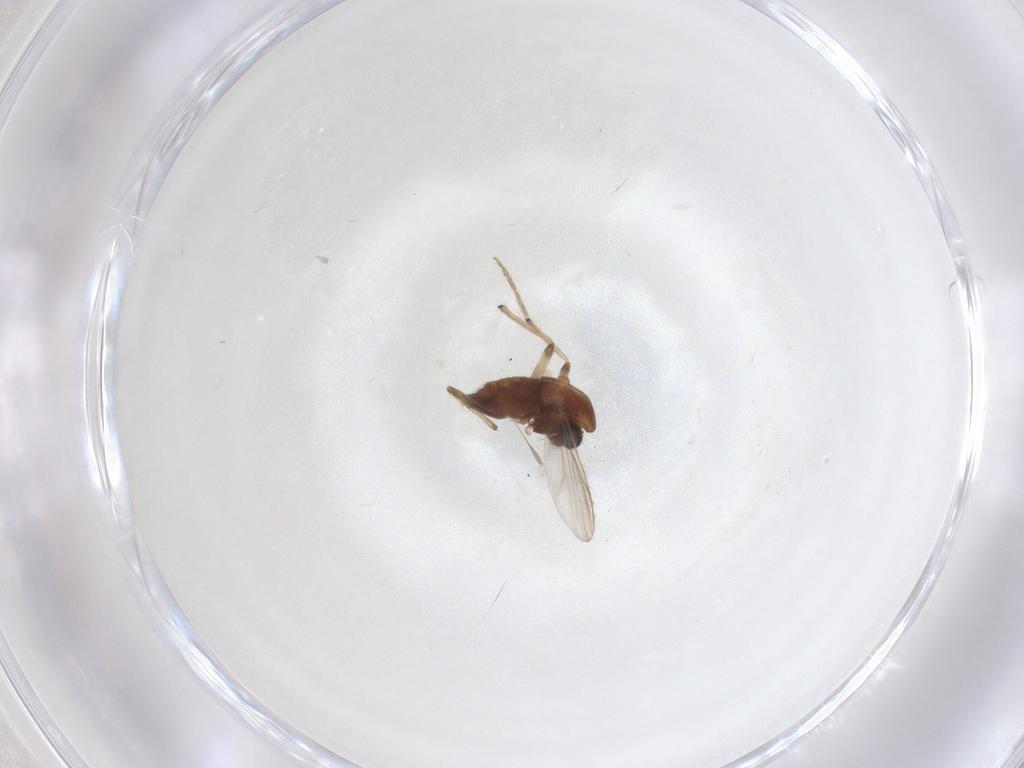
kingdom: Animalia
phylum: Arthropoda
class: Insecta
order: Diptera
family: Chironomidae
